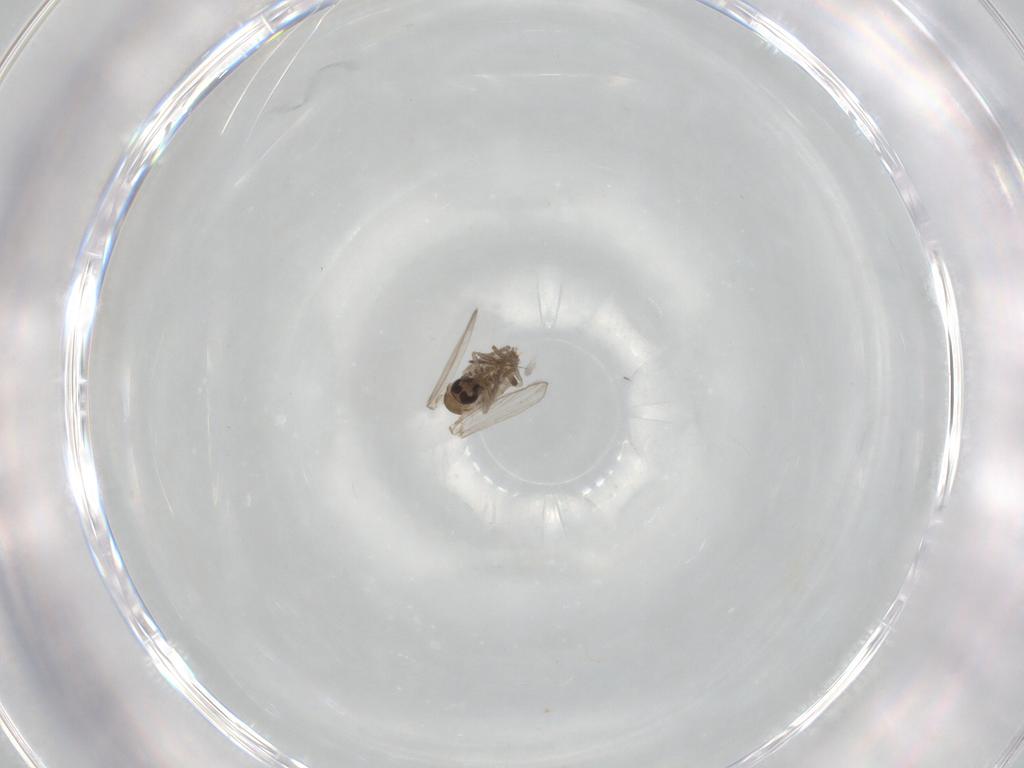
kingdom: Animalia
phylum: Arthropoda
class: Insecta
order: Diptera
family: Psychodidae
